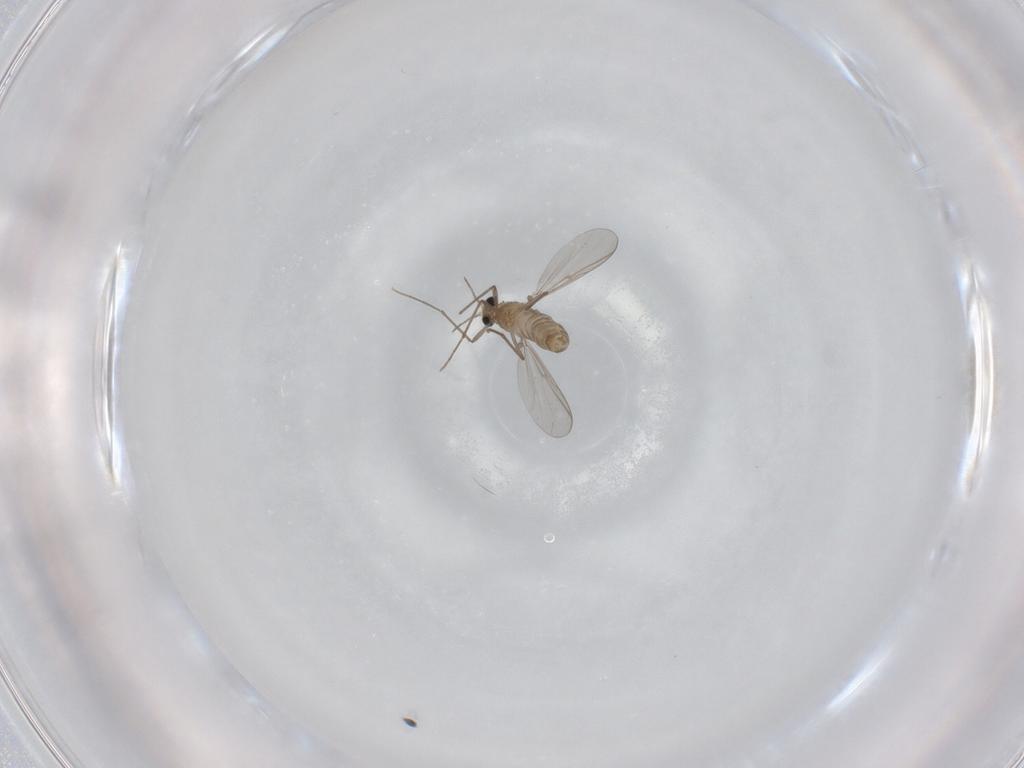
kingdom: Animalia
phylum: Arthropoda
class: Insecta
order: Diptera
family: Chironomidae
